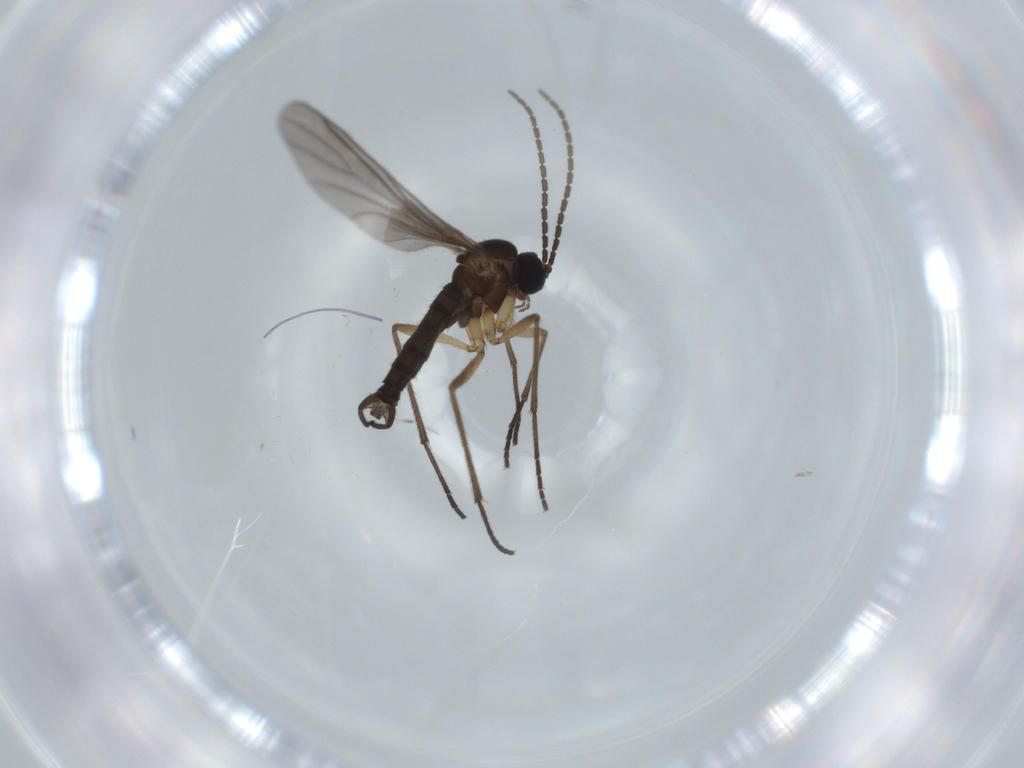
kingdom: Animalia
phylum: Arthropoda
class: Insecta
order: Diptera
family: Sciaridae
